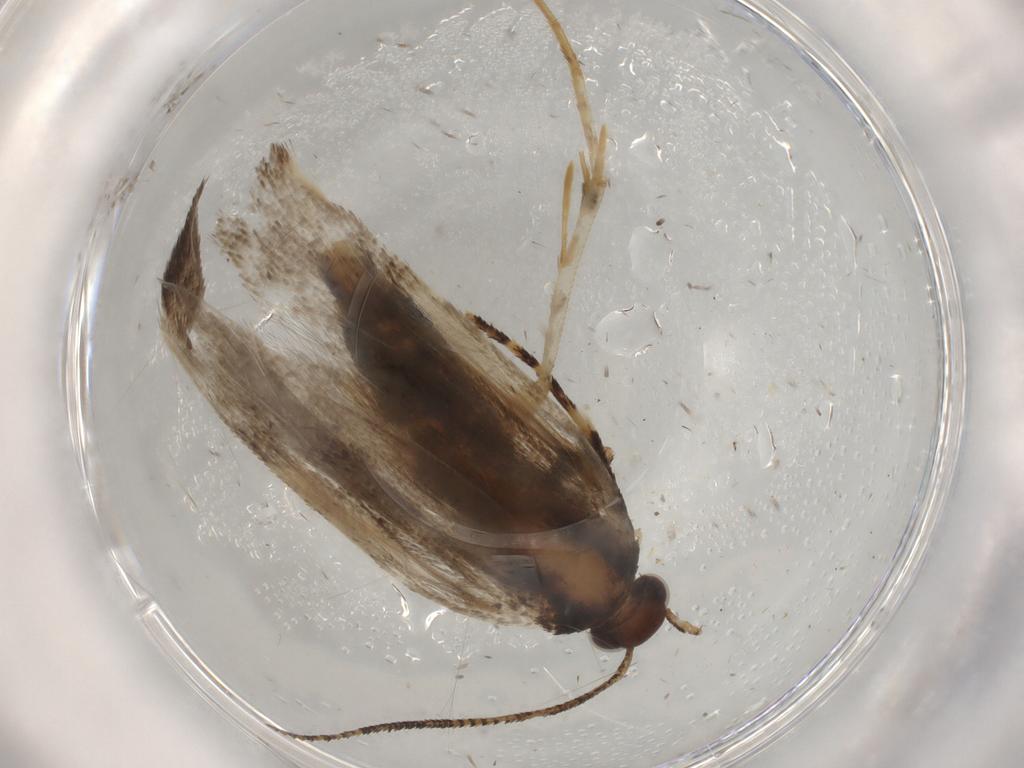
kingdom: Animalia
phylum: Arthropoda
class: Insecta
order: Lepidoptera
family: Gelechiidae
